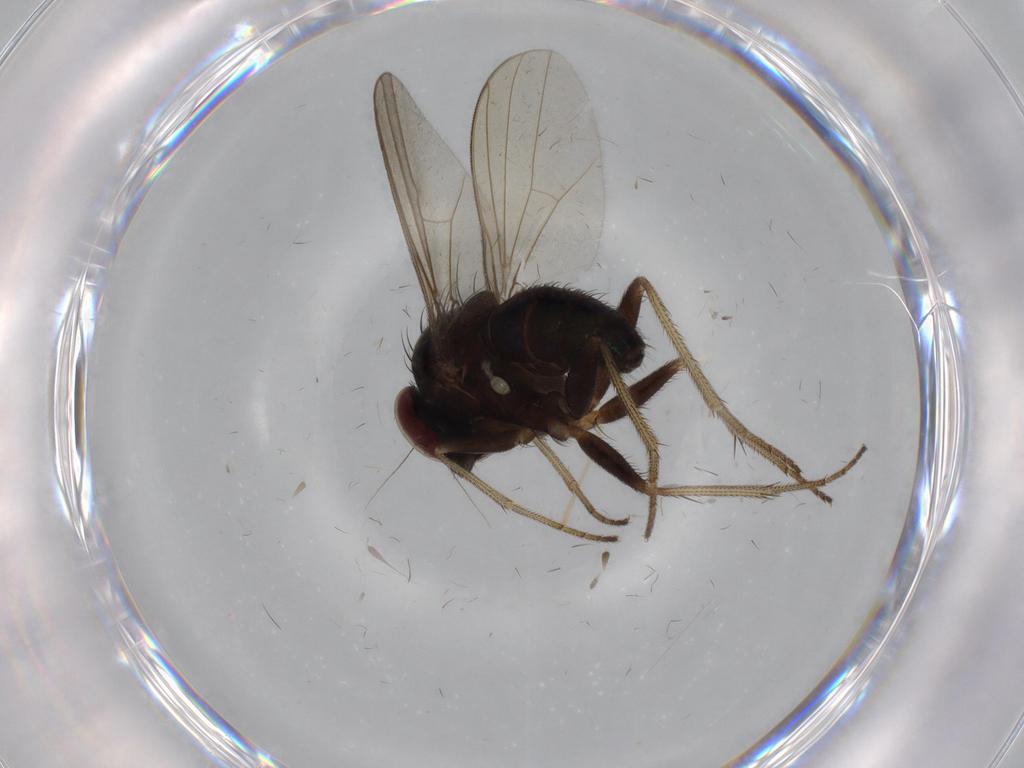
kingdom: Animalia
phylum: Arthropoda
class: Insecta
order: Diptera
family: Dolichopodidae
